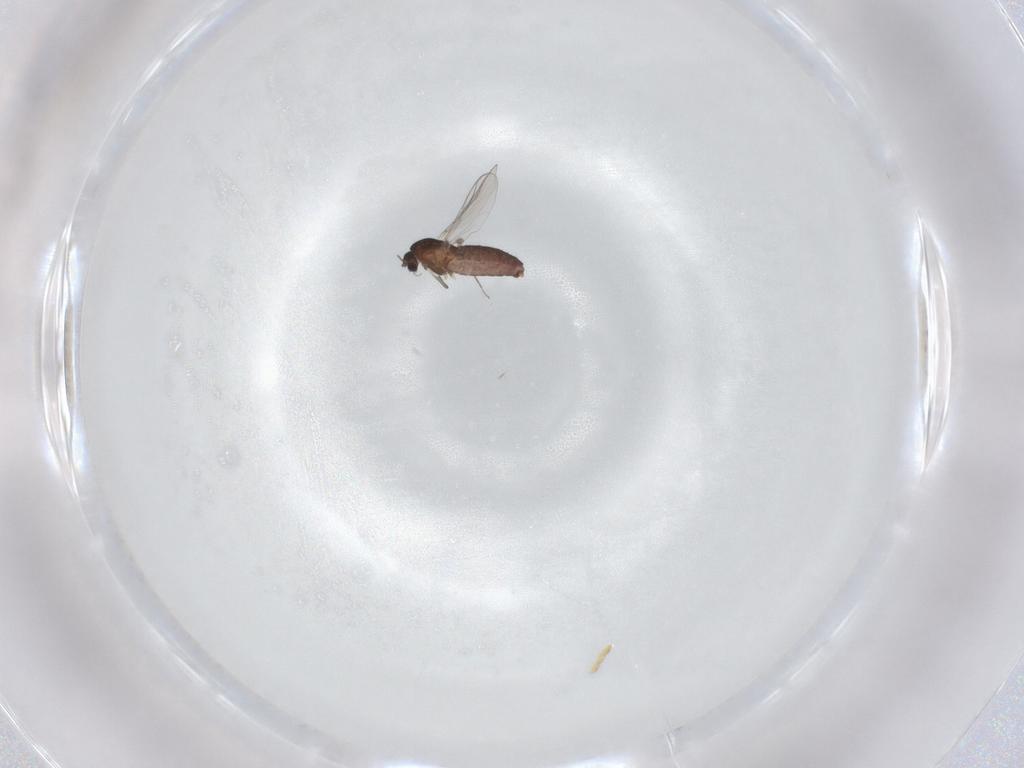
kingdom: Animalia
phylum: Arthropoda
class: Insecta
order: Diptera
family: Chironomidae
